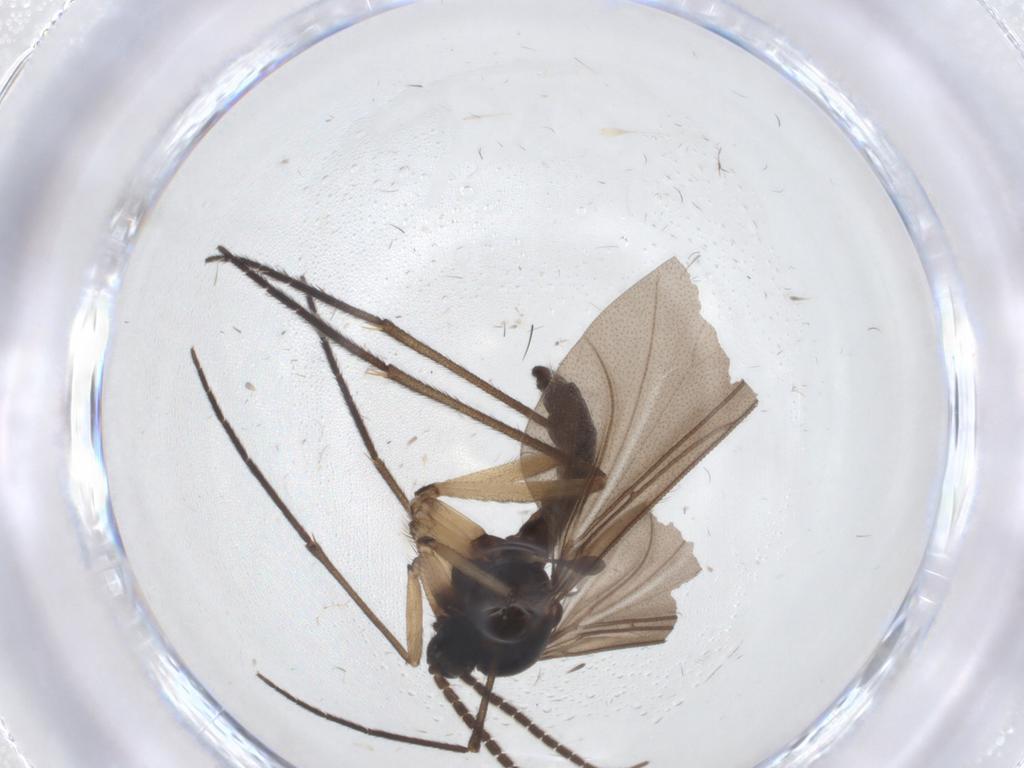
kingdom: Animalia
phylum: Arthropoda
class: Insecta
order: Diptera
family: Sciaridae
